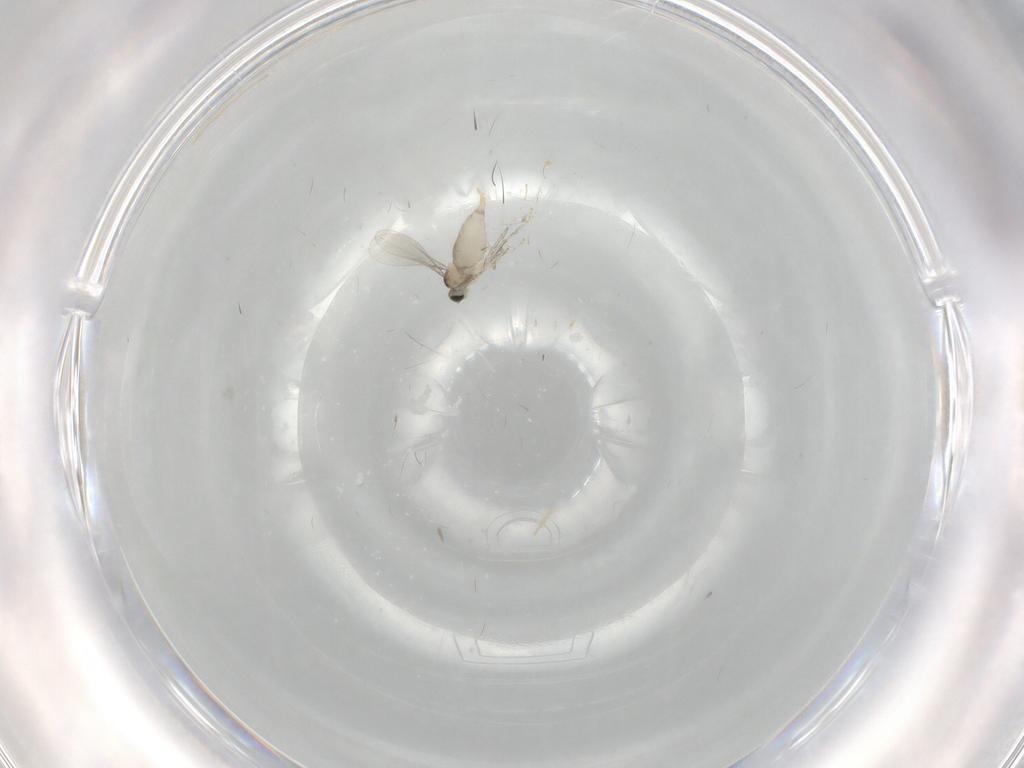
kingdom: Animalia
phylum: Arthropoda
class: Insecta
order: Diptera
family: Chironomidae
